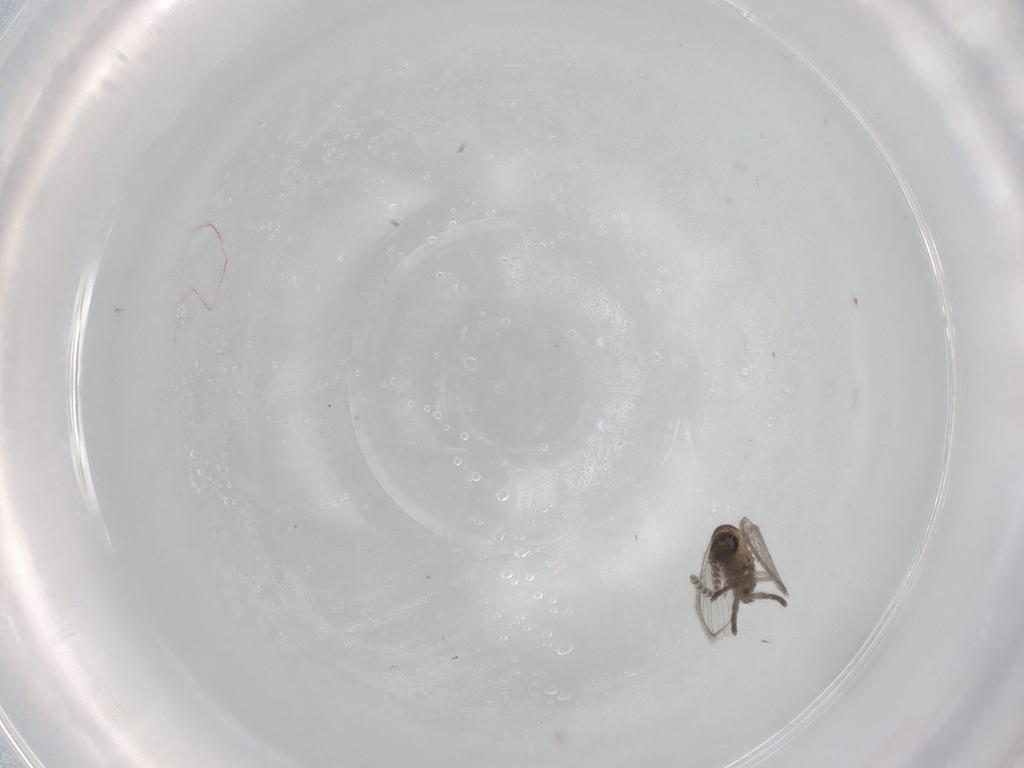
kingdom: Animalia
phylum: Arthropoda
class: Insecta
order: Diptera
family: Psychodidae
